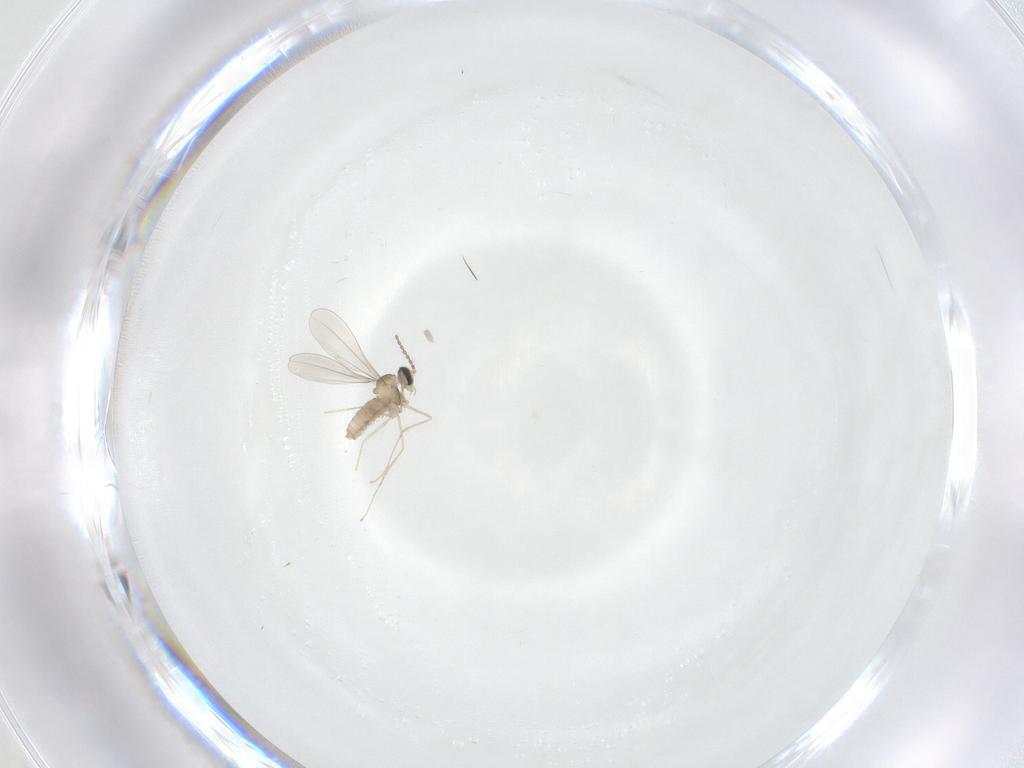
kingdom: Animalia
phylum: Arthropoda
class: Insecta
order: Diptera
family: Cecidomyiidae
